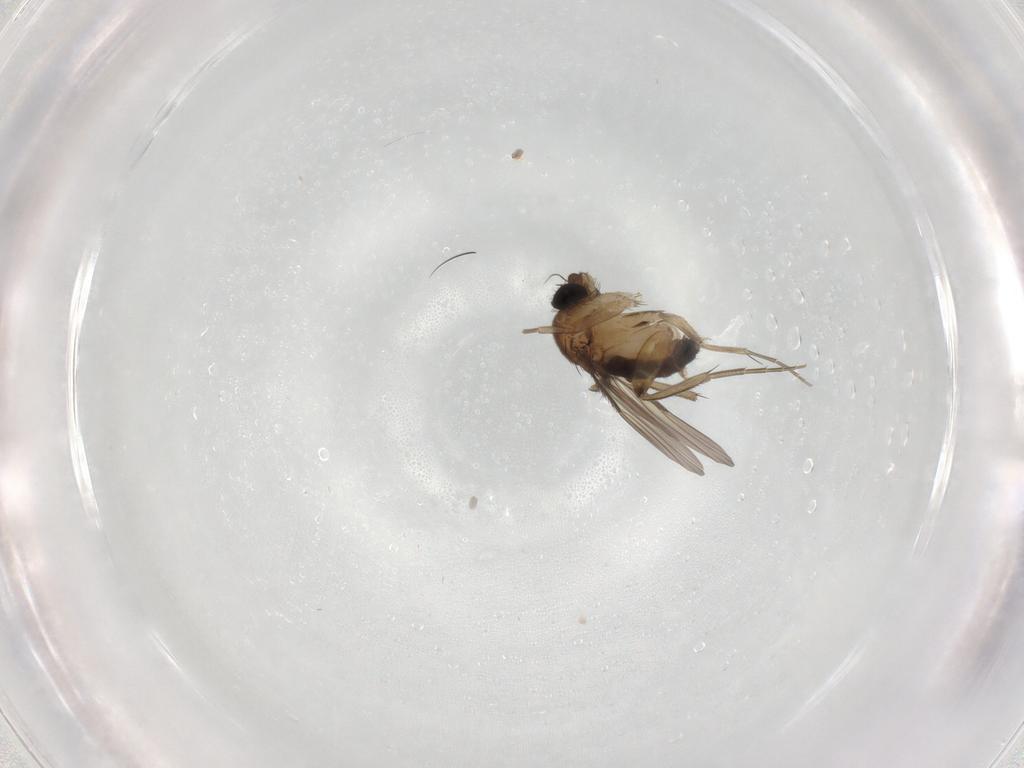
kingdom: Animalia
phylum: Arthropoda
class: Insecta
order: Diptera
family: Phoridae
